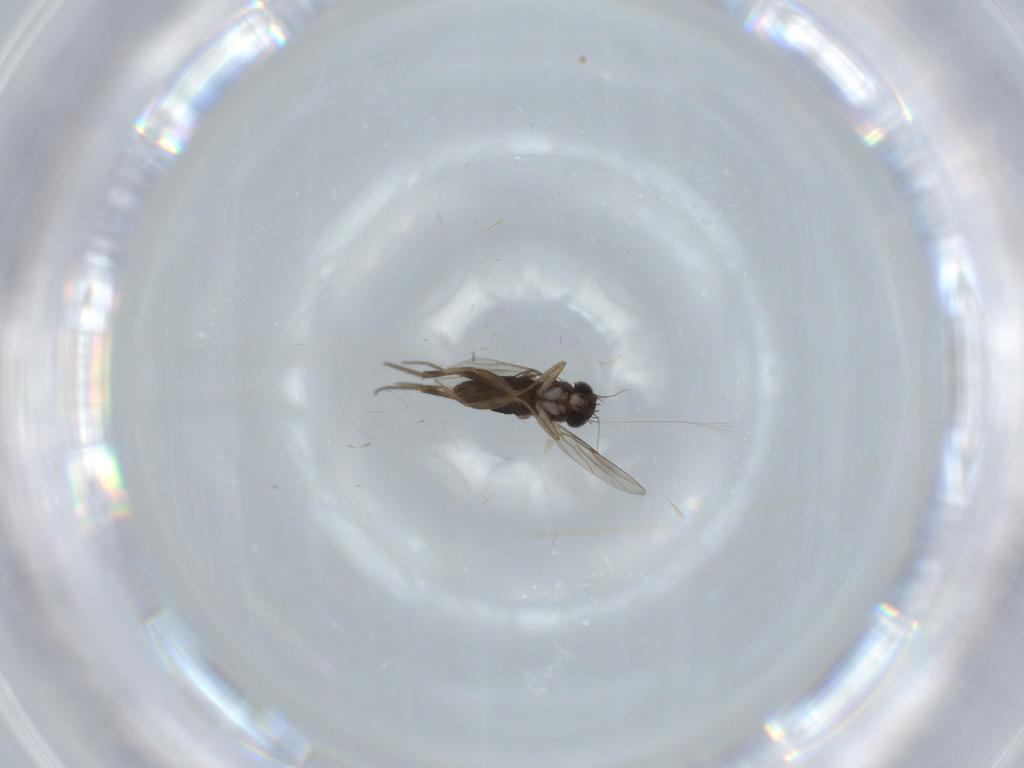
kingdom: Animalia
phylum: Arthropoda
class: Insecta
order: Diptera
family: Phoridae
